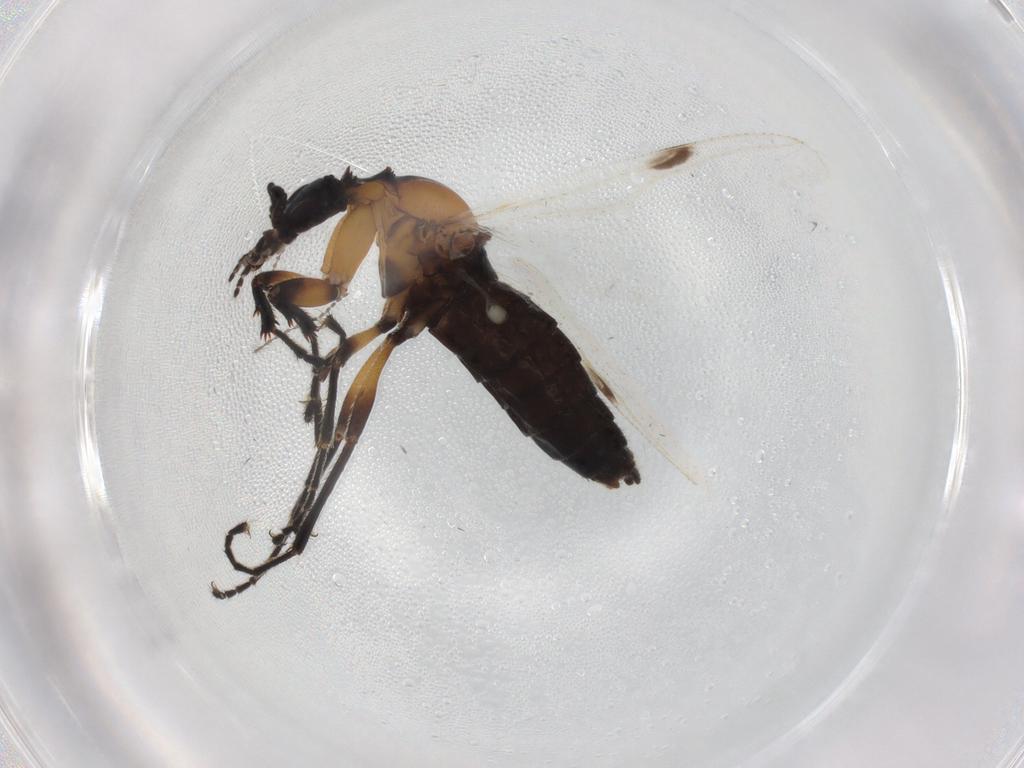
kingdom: Animalia
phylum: Arthropoda
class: Insecta
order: Diptera
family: Bibionidae
